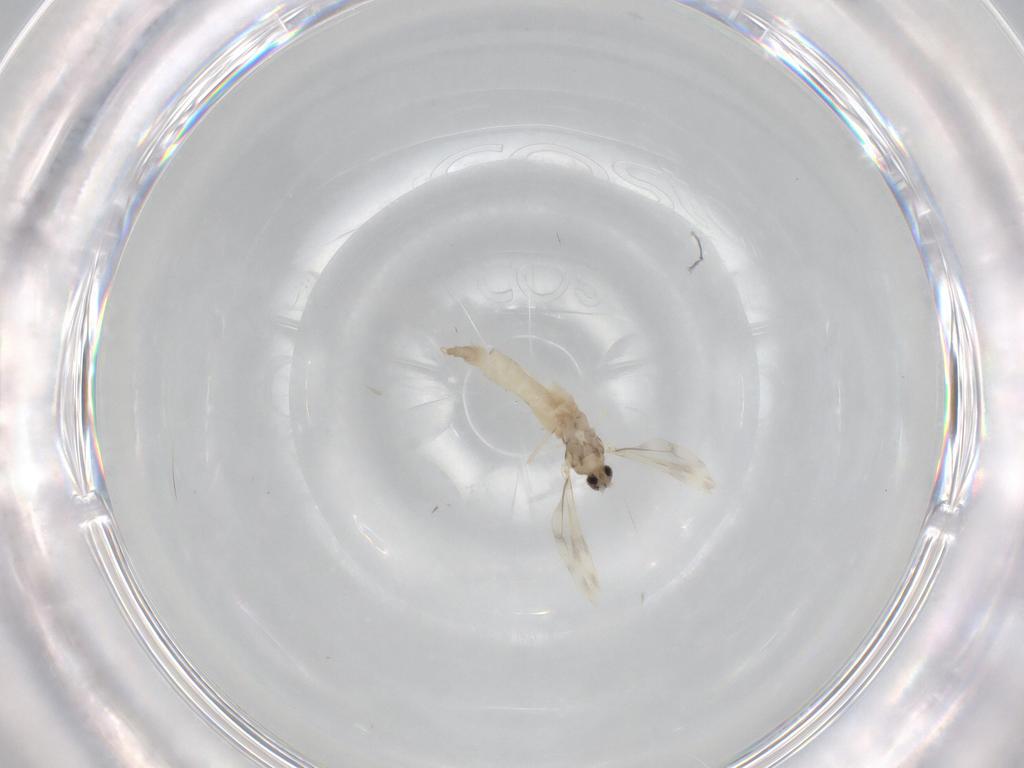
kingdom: Animalia
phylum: Arthropoda
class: Insecta
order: Diptera
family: Cecidomyiidae
